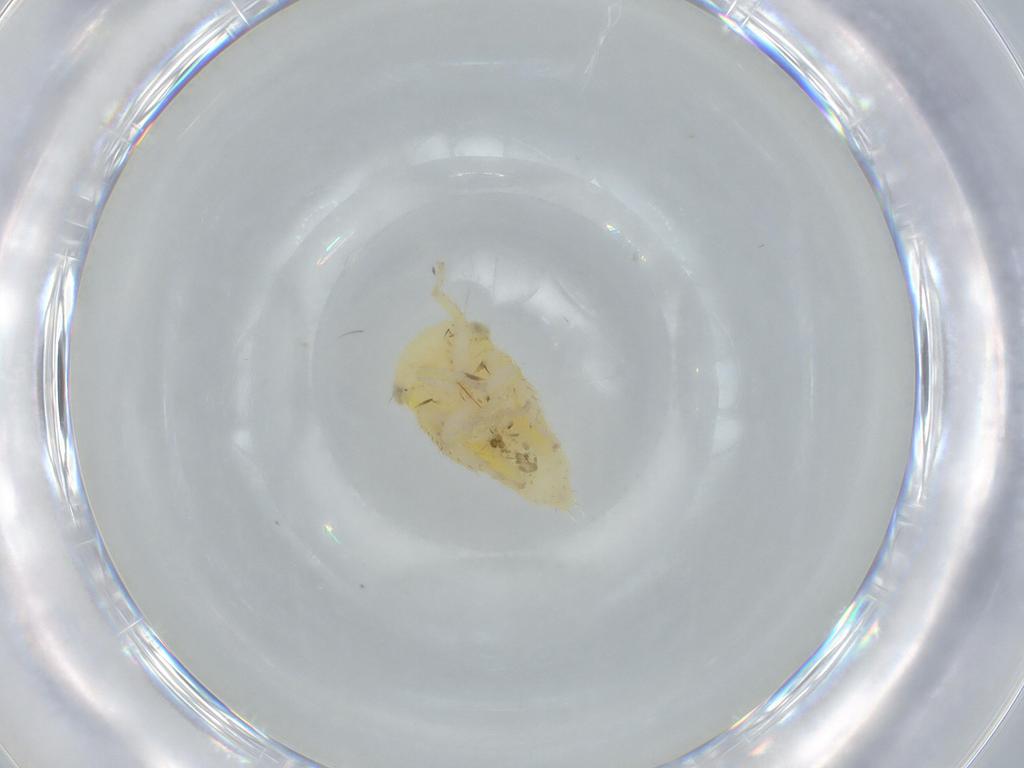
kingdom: Animalia
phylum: Arthropoda
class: Insecta
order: Hemiptera
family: Cicadellidae
